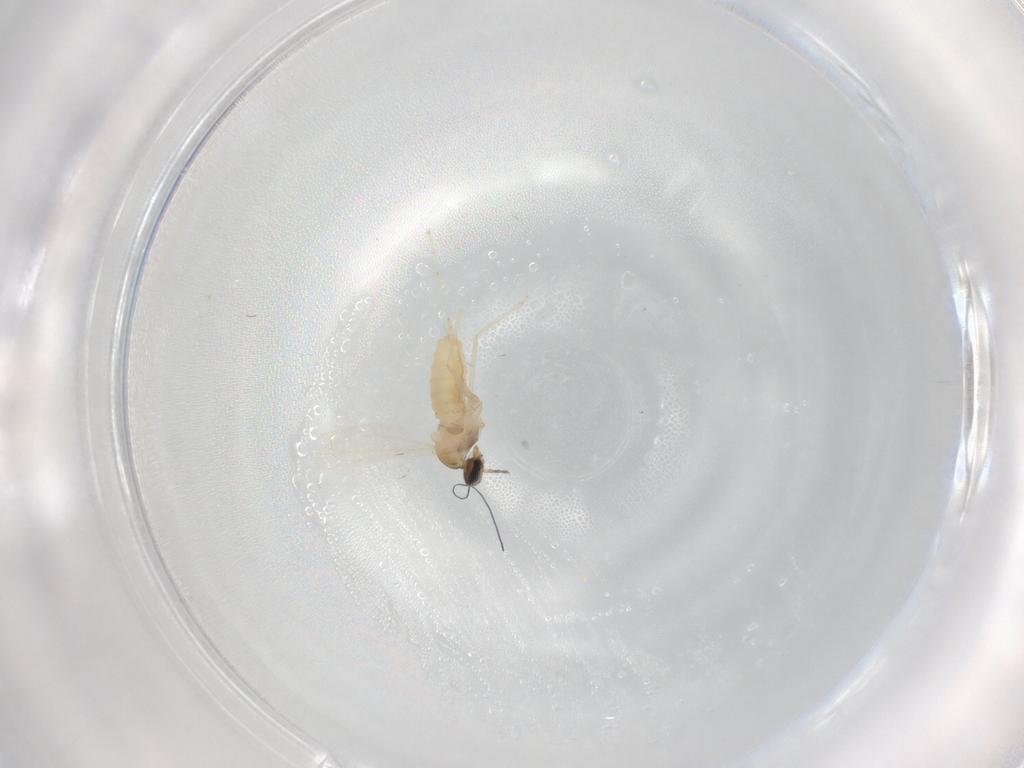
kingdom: Animalia
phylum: Arthropoda
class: Insecta
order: Diptera
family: Cecidomyiidae
